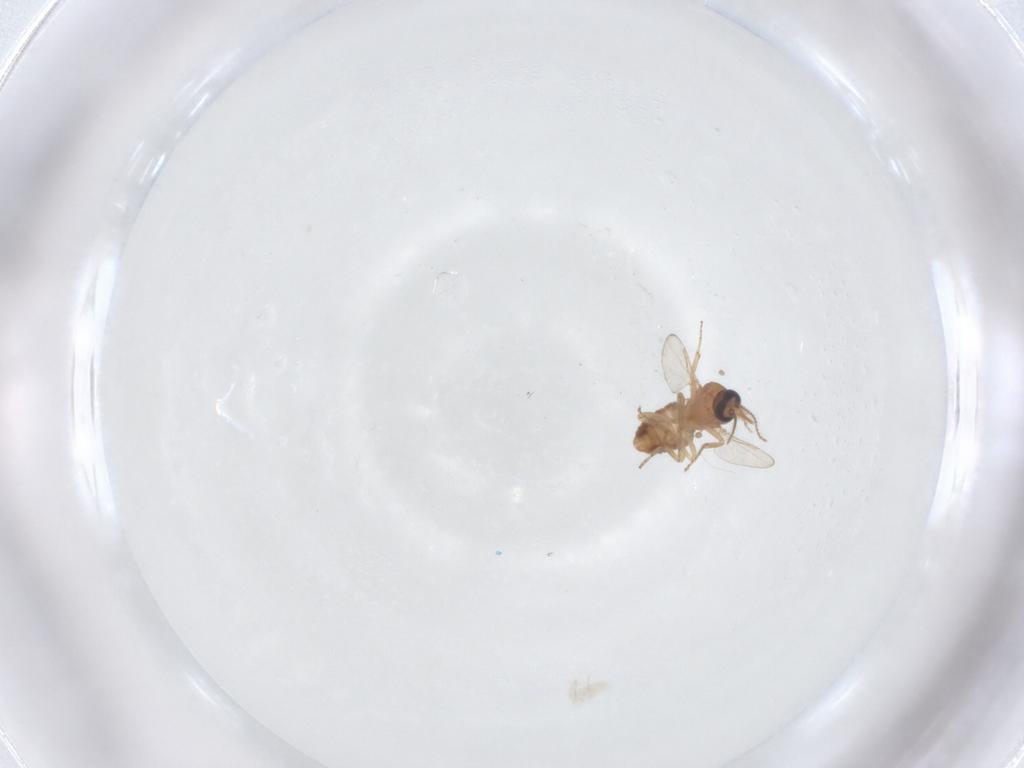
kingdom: Animalia
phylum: Arthropoda
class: Insecta
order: Diptera
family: Ceratopogonidae
